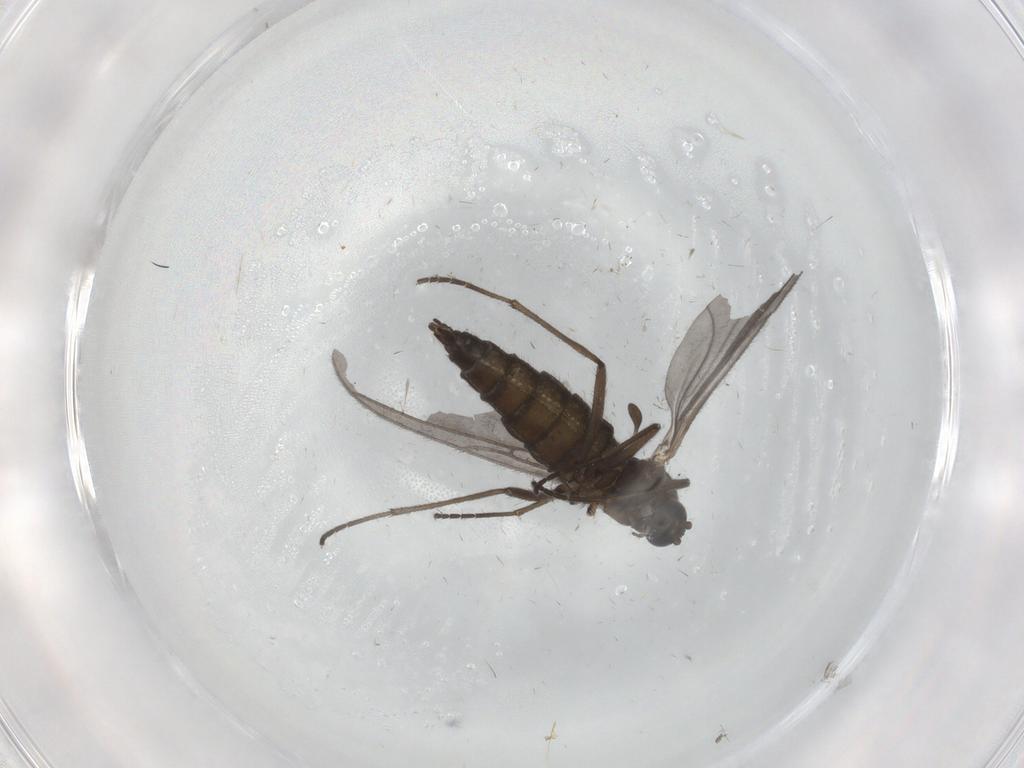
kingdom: Animalia
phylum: Arthropoda
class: Insecta
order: Diptera
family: Sciaridae
